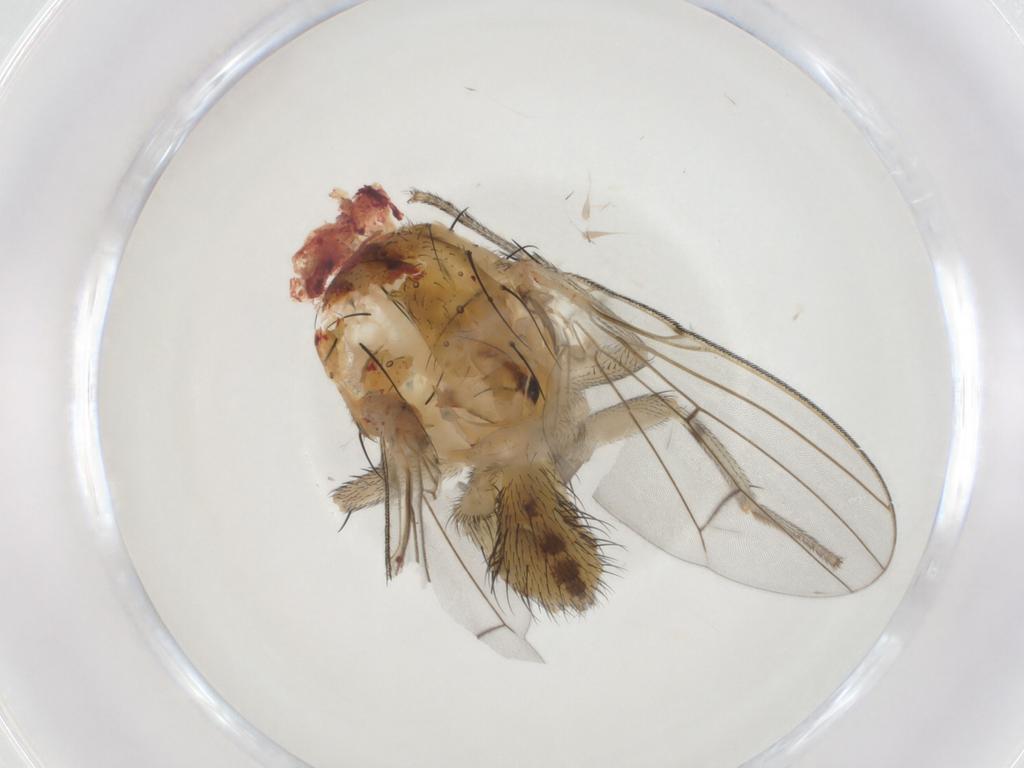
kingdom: Animalia
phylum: Arthropoda
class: Insecta
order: Diptera
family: Lauxaniidae
